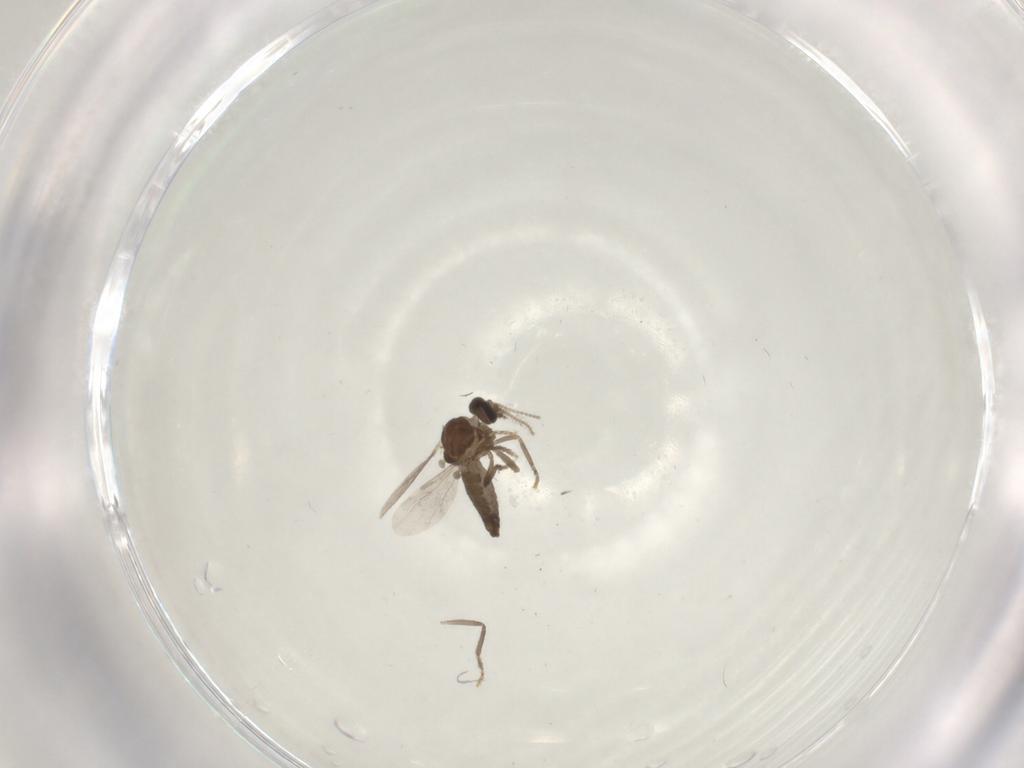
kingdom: Animalia
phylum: Arthropoda
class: Insecta
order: Diptera
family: Ceratopogonidae
